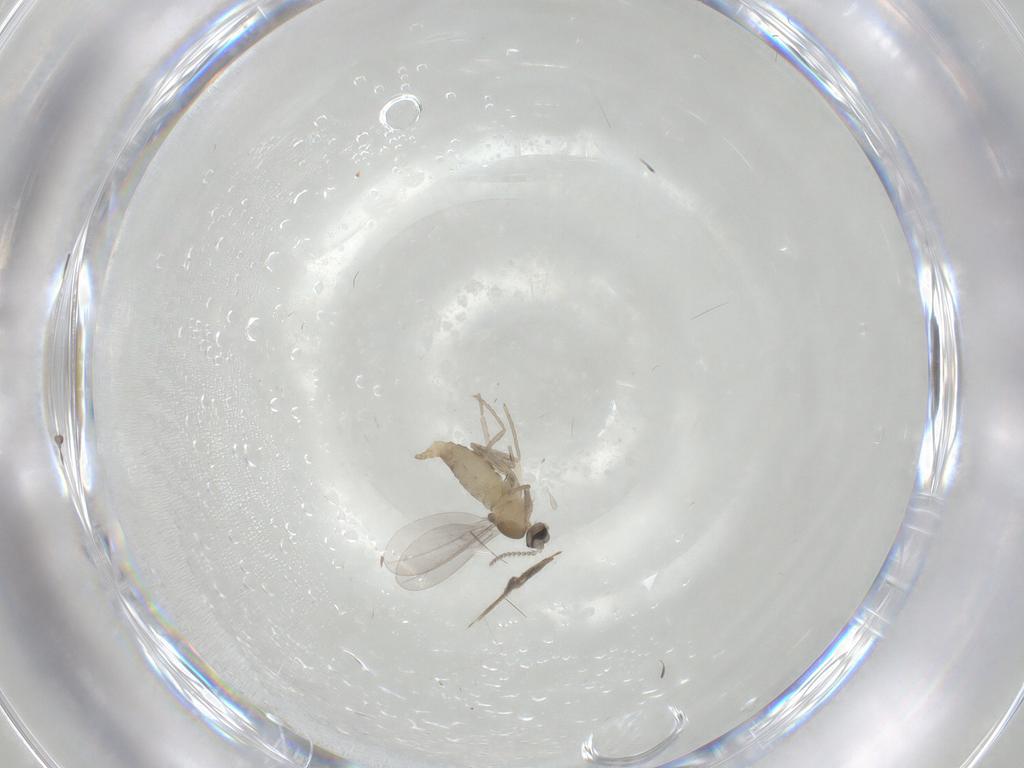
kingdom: Animalia
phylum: Arthropoda
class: Insecta
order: Diptera
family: Cecidomyiidae
